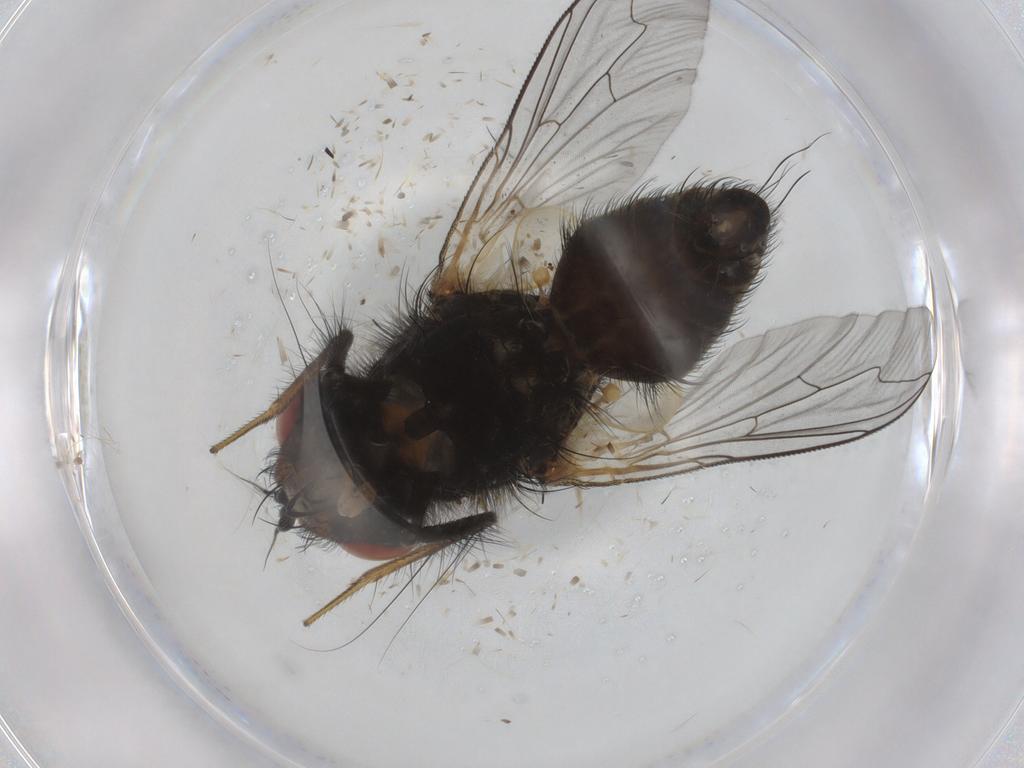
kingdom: Animalia
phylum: Arthropoda
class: Insecta
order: Diptera
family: Sarcophagidae
